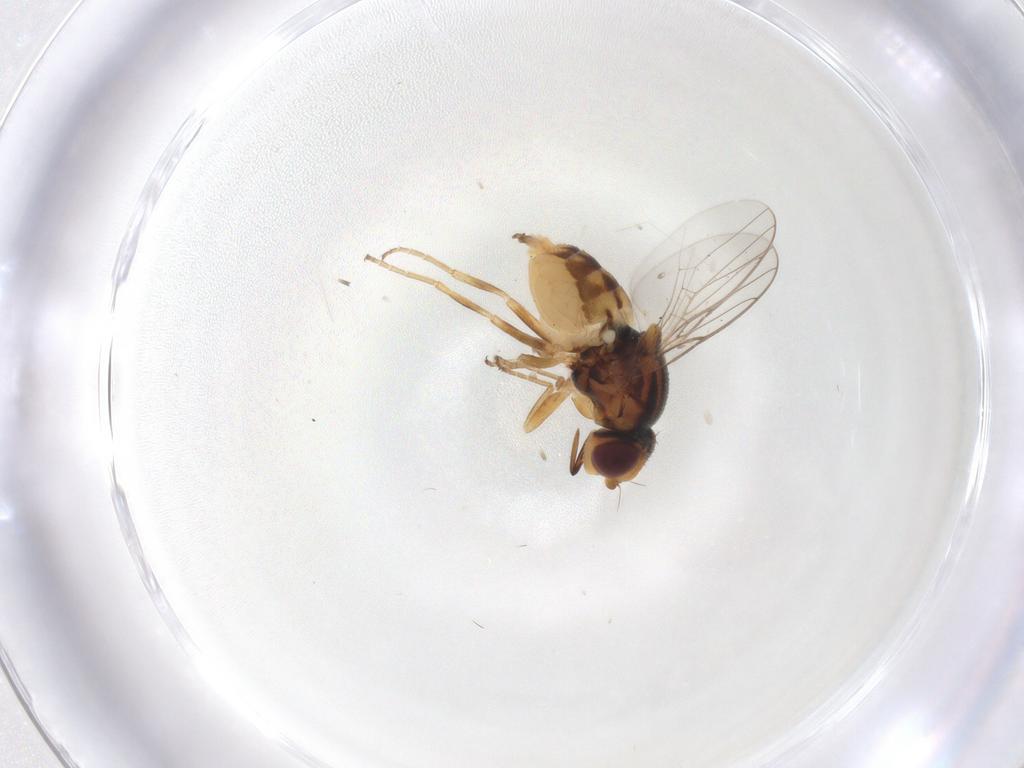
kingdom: Animalia
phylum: Arthropoda
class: Insecta
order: Diptera
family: Chloropidae
